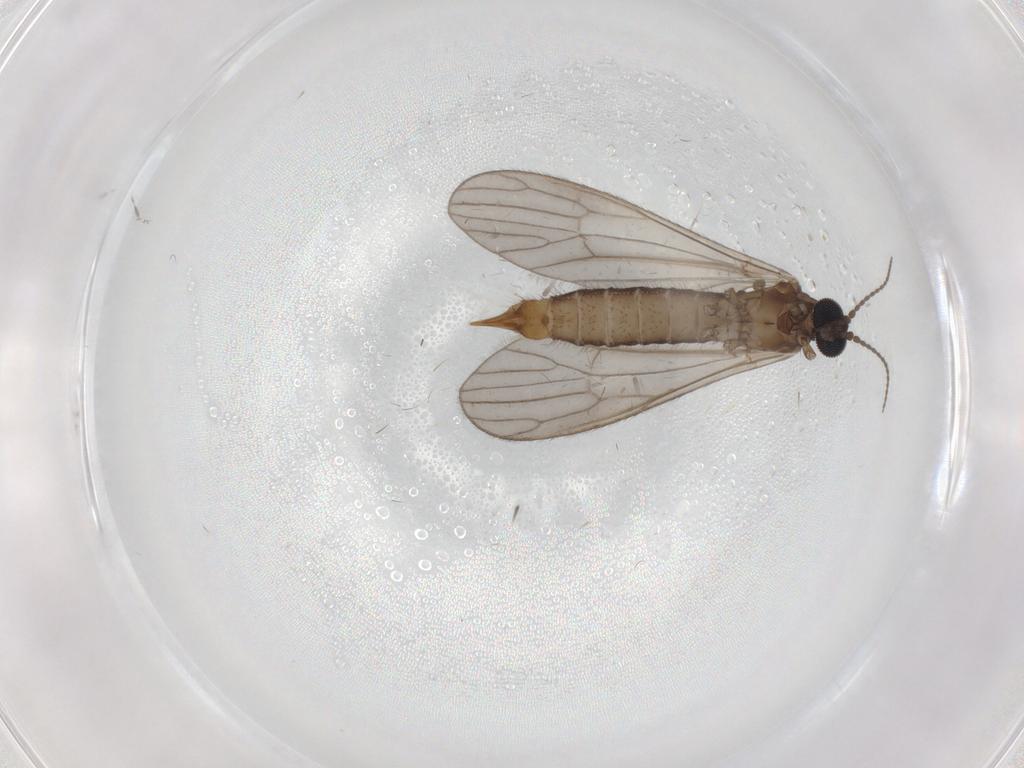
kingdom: Animalia
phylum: Arthropoda
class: Insecta
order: Diptera
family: Limoniidae
